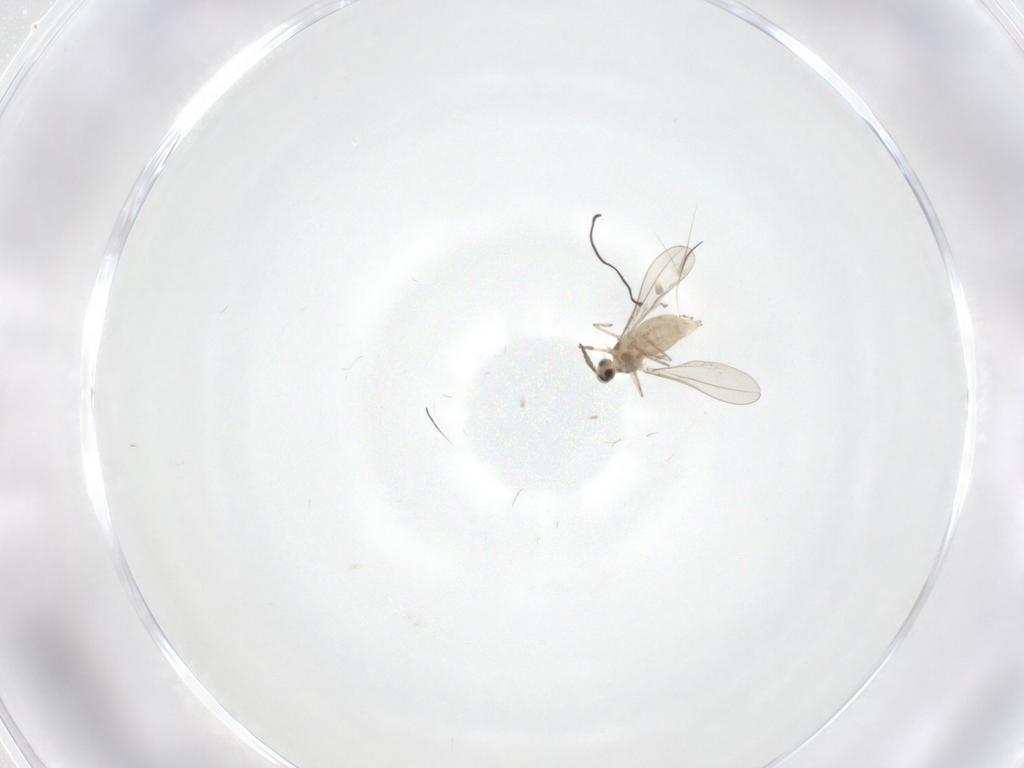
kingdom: Animalia
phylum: Arthropoda
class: Insecta
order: Diptera
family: Cecidomyiidae
